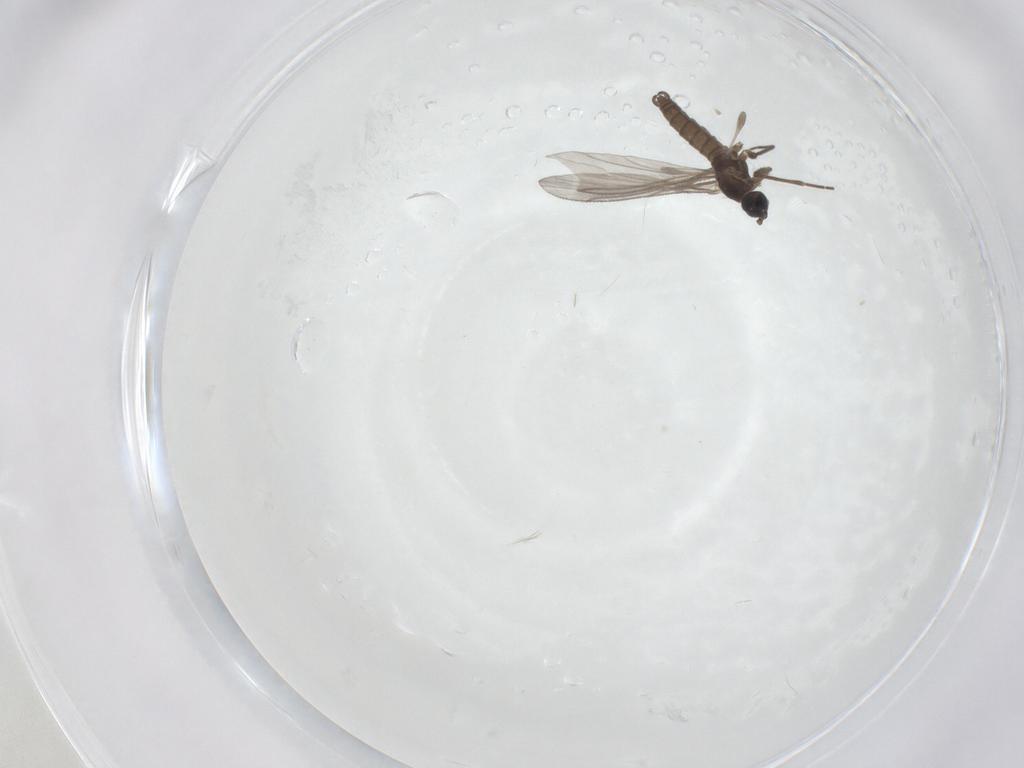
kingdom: Animalia
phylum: Arthropoda
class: Insecta
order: Diptera
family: Sciaridae
